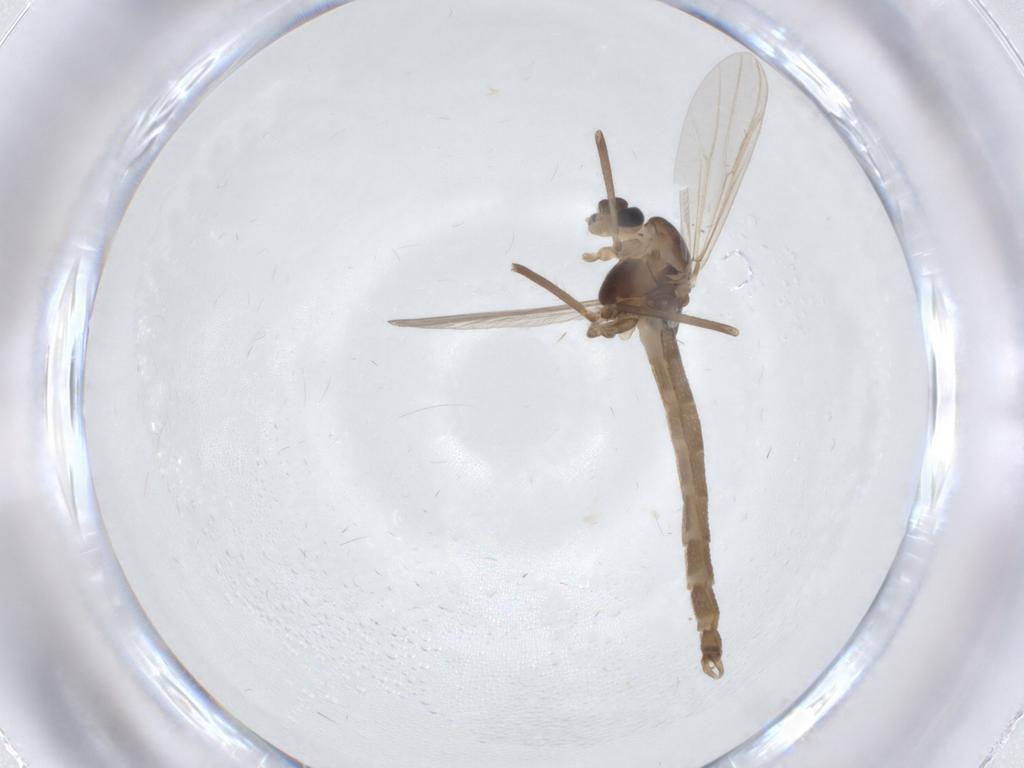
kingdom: Animalia
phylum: Arthropoda
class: Insecta
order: Diptera
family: Chironomidae
